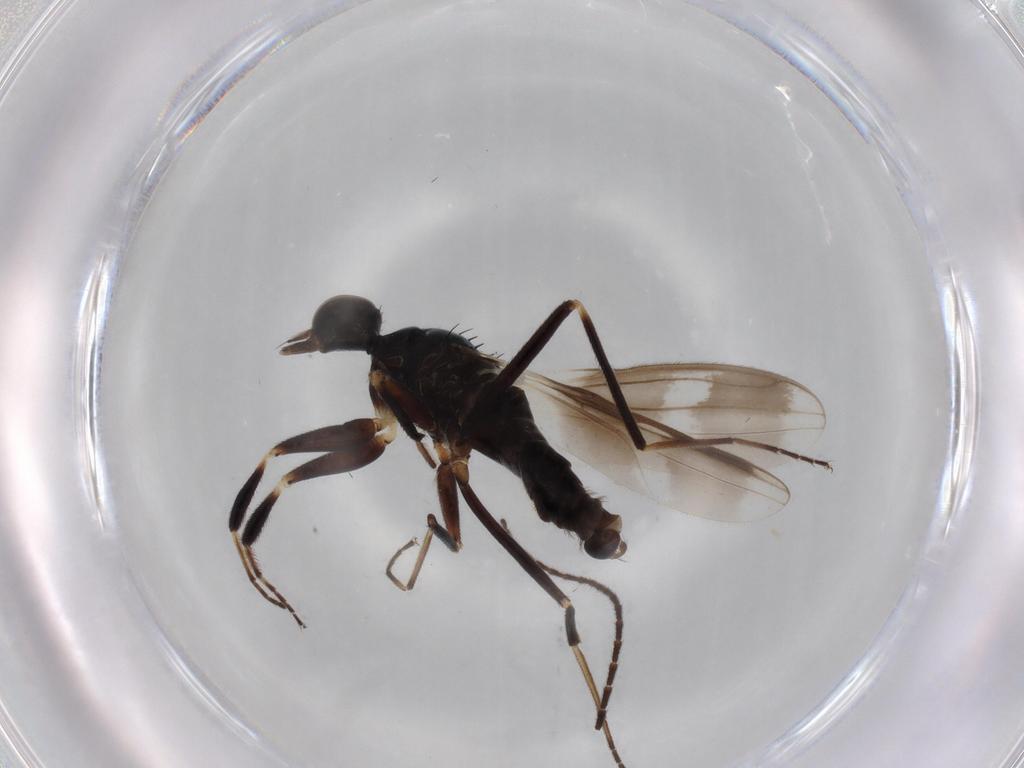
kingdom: Animalia
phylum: Arthropoda
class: Insecta
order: Diptera
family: Hybotidae
